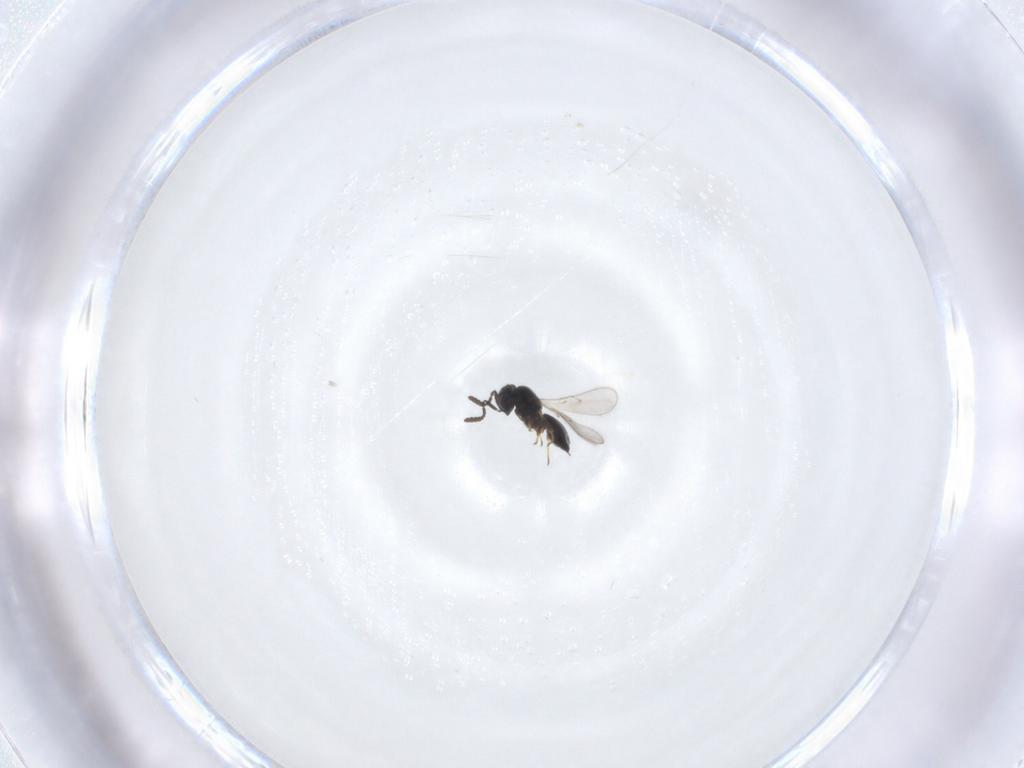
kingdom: Animalia
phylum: Arthropoda
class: Insecta
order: Hymenoptera
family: Scelionidae
